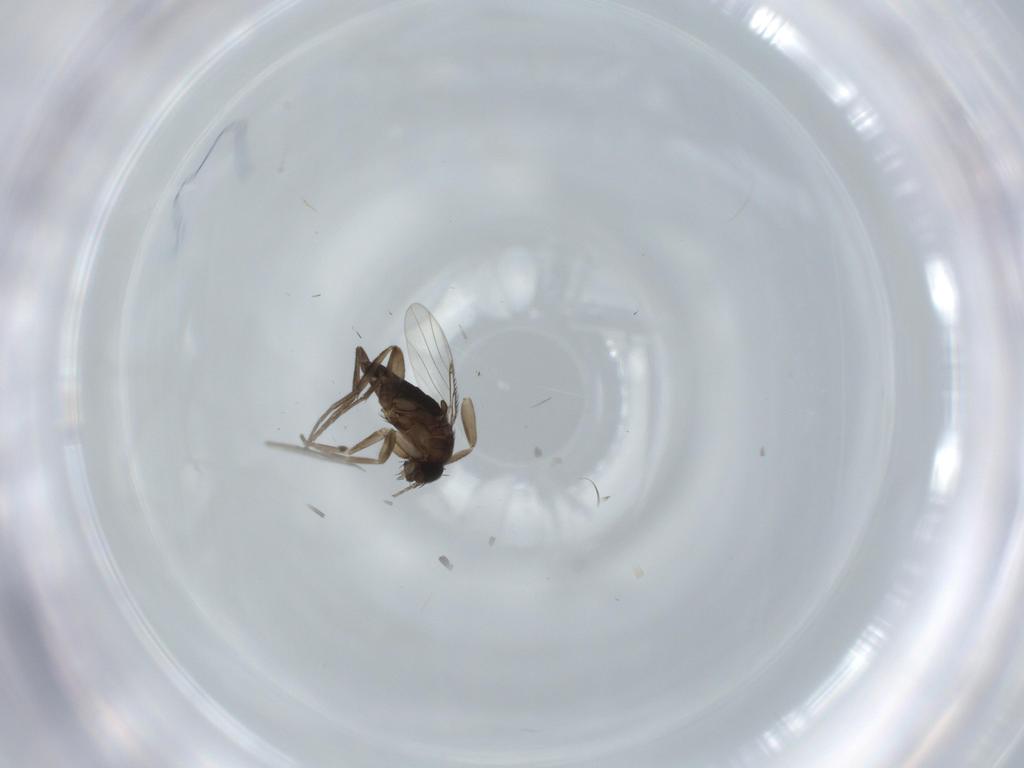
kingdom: Animalia
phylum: Arthropoda
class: Insecta
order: Diptera
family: Phoridae
